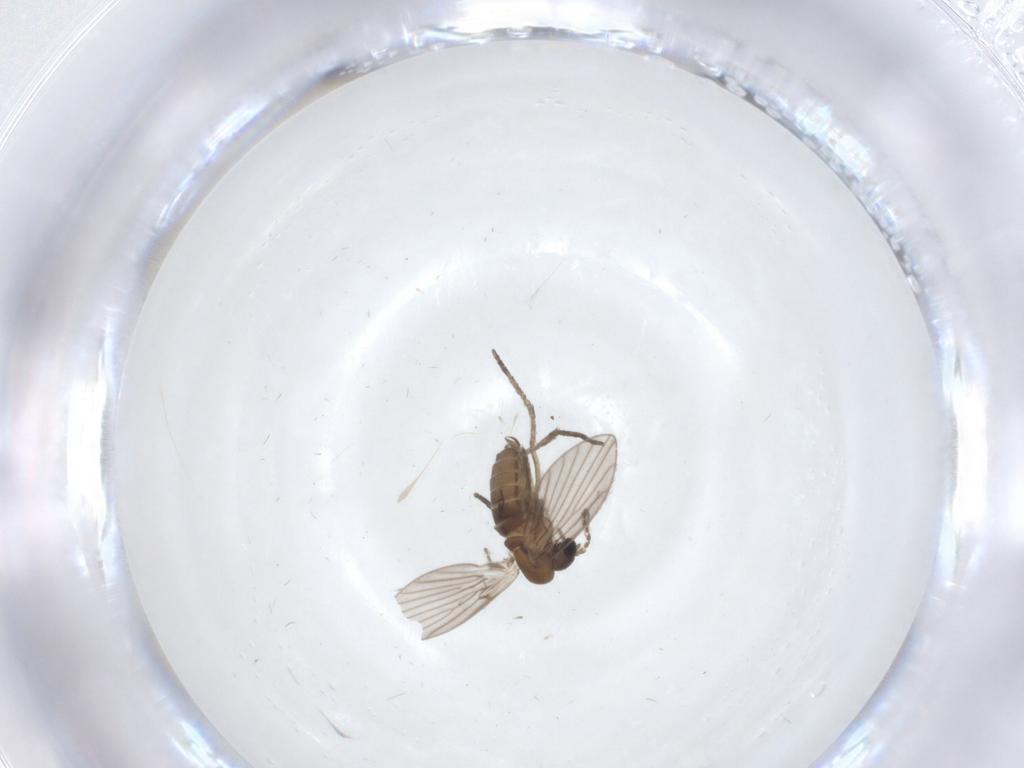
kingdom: Animalia
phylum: Arthropoda
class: Insecta
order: Diptera
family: Psychodidae
